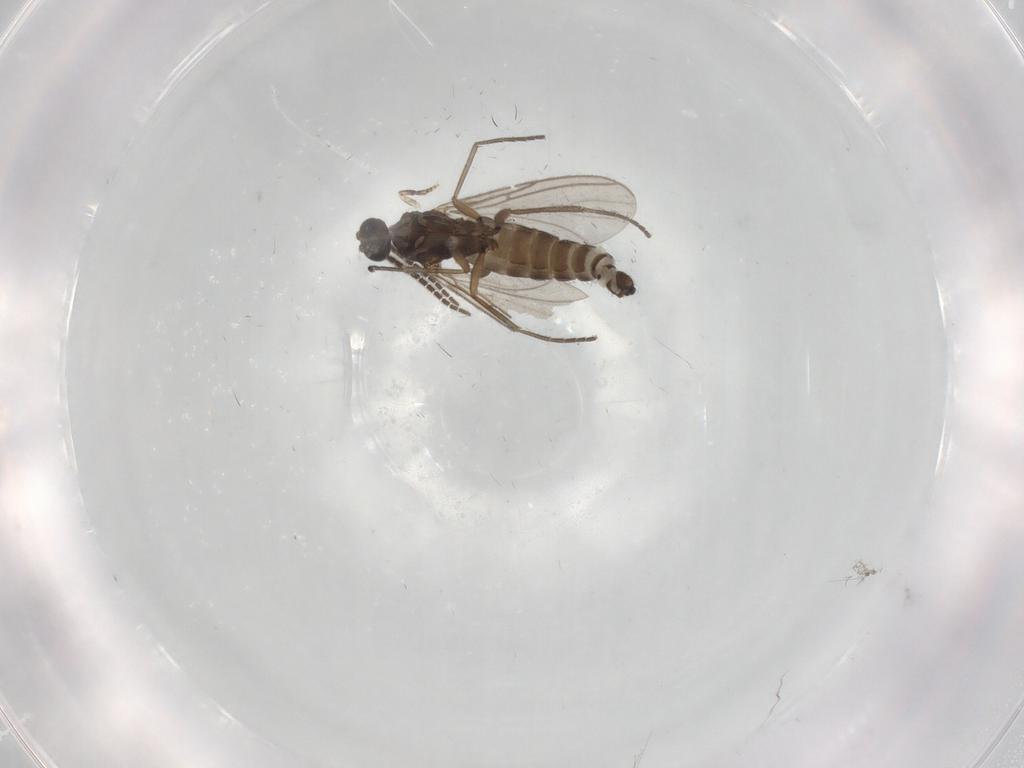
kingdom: Animalia
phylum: Arthropoda
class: Insecta
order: Diptera
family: Sciaridae
